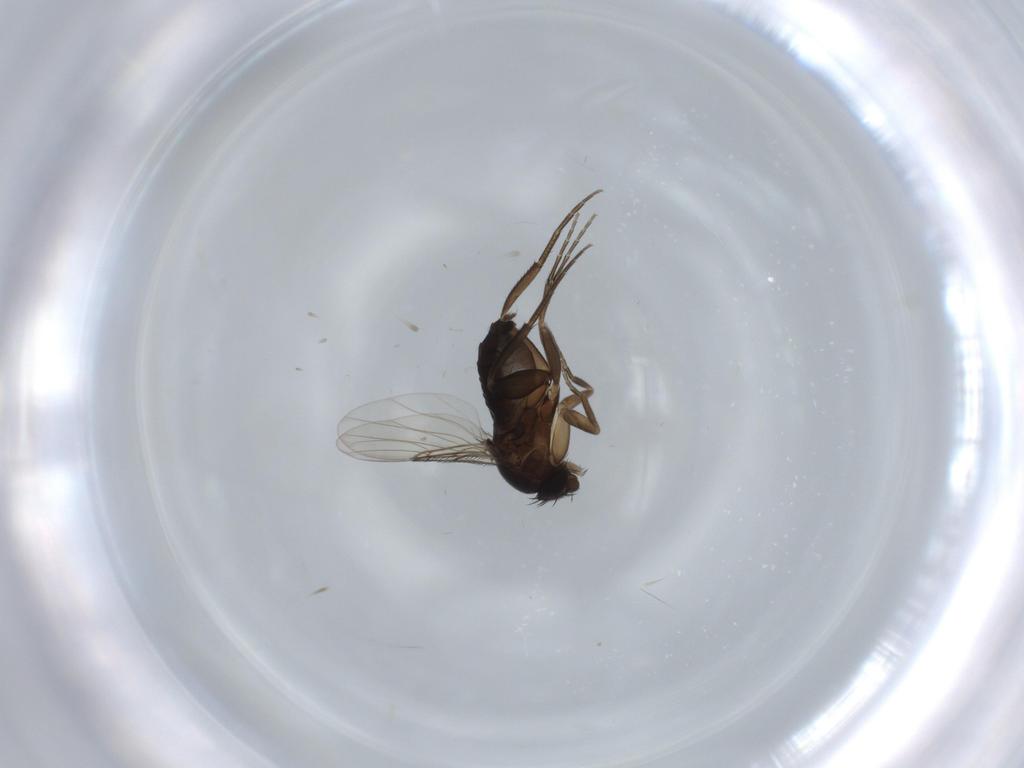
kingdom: Animalia
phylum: Arthropoda
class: Insecta
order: Diptera
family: Phoridae
